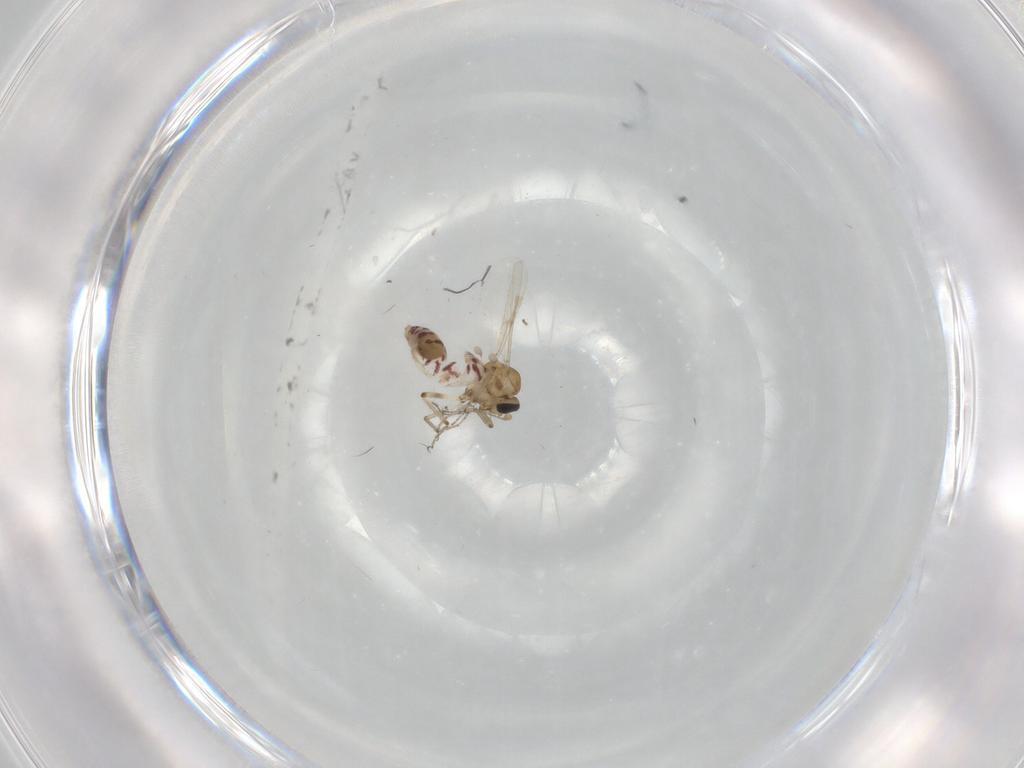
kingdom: Animalia
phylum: Arthropoda
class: Insecta
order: Diptera
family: Ceratopogonidae
